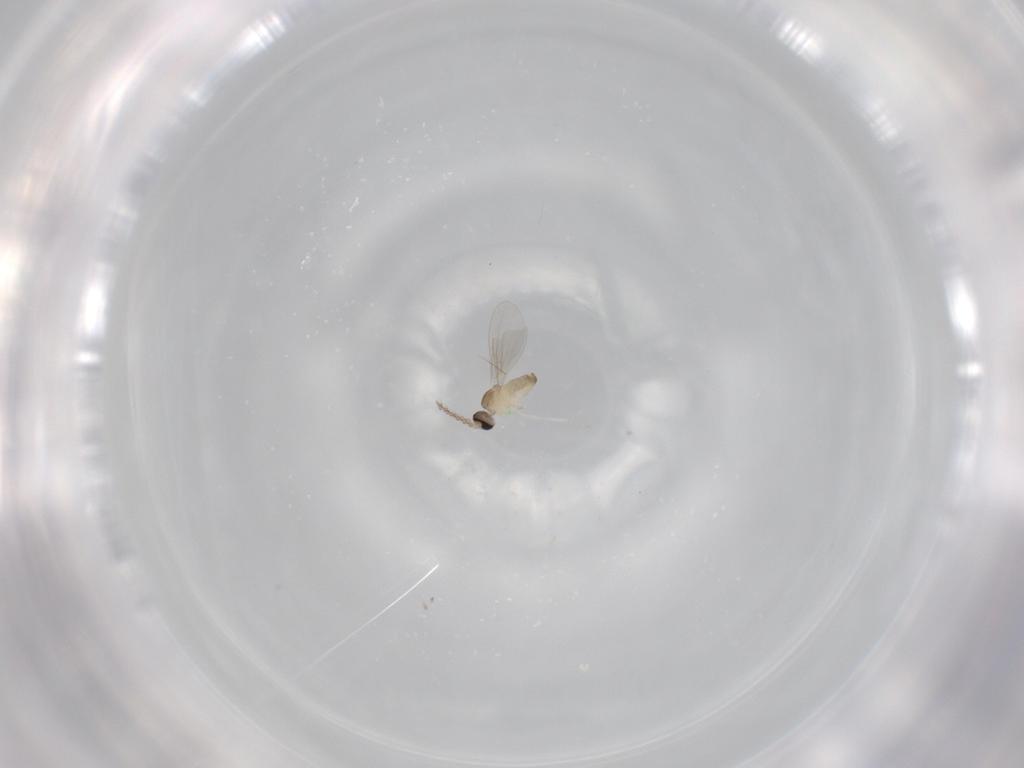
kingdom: Animalia
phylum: Arthropoda
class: Insecta
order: Diptera
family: Cecidomyiidae
